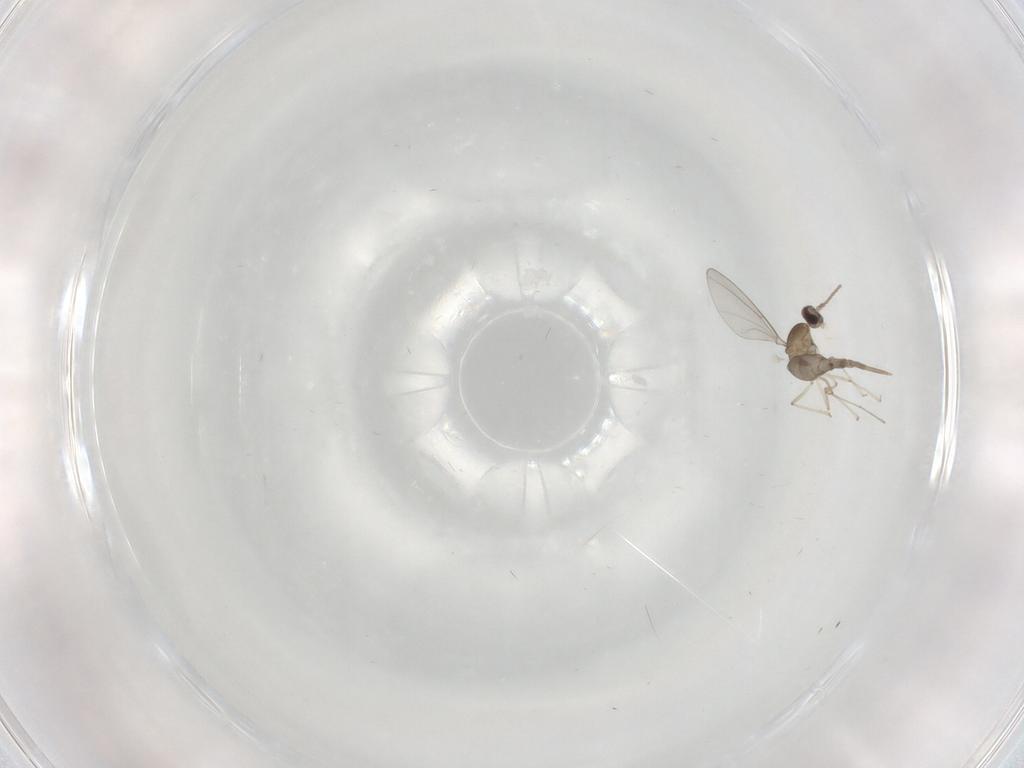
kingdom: Animalia
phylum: Arthropoda
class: Insecta
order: Diptera
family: Cecidomyiidae
